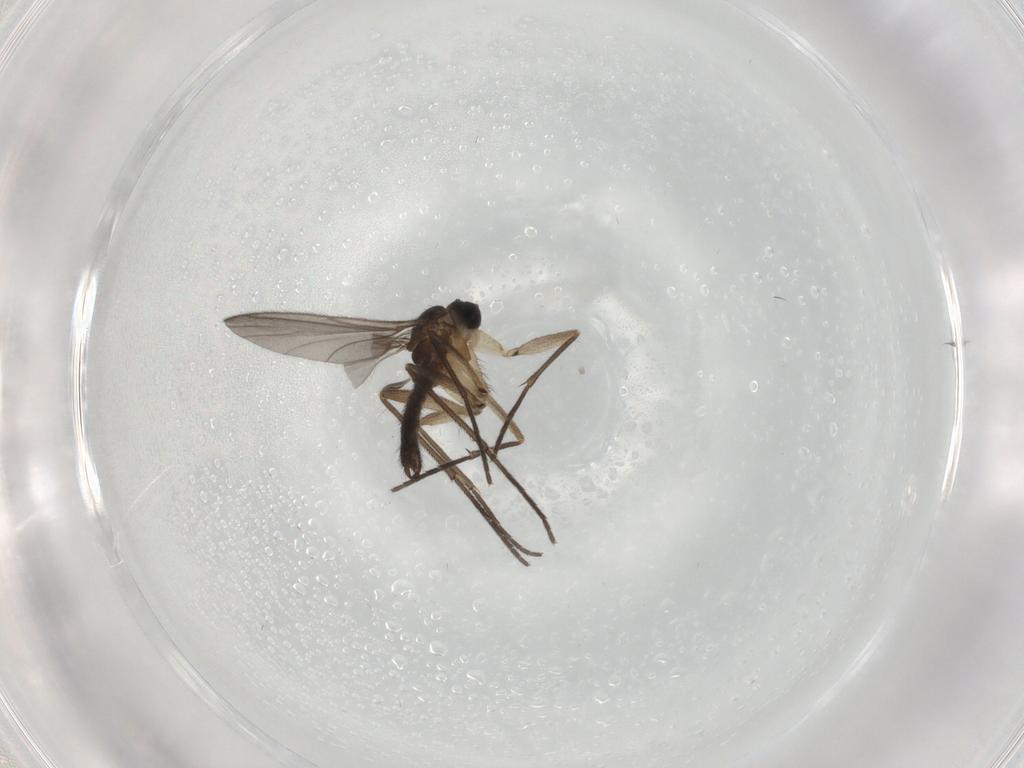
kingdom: Animalia
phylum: Arthropoda
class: Insecta
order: Diptera
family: Sciaridae
